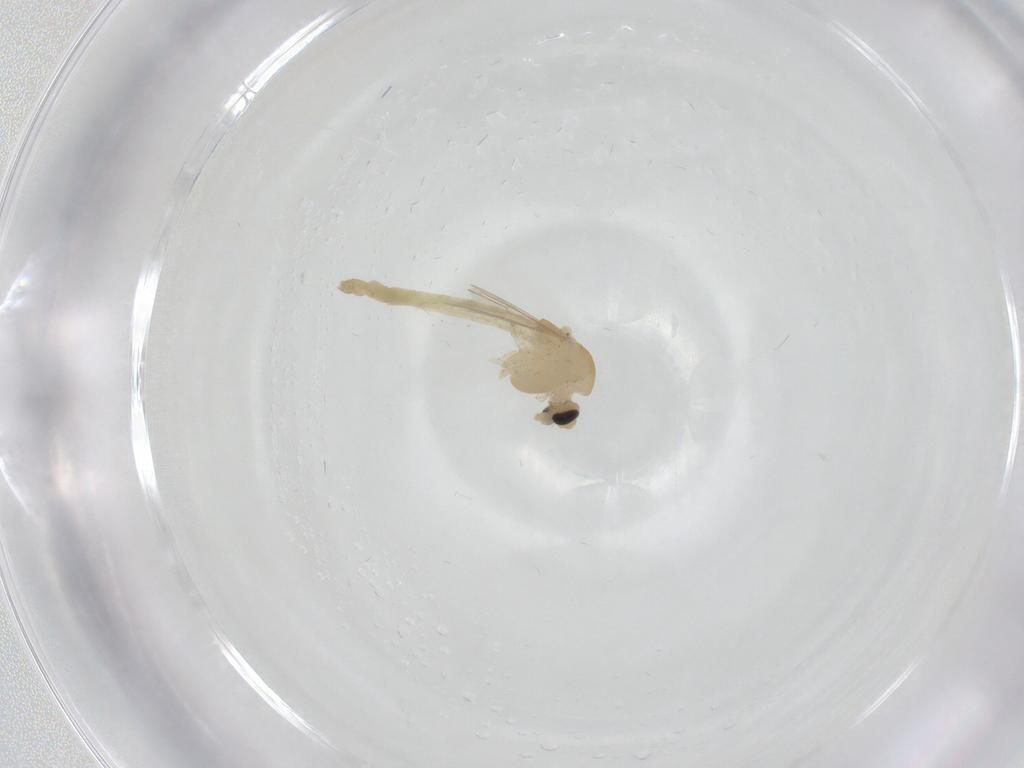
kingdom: Animalia
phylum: Arthropoda
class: Insecta
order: Diptera
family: Chironomidae
